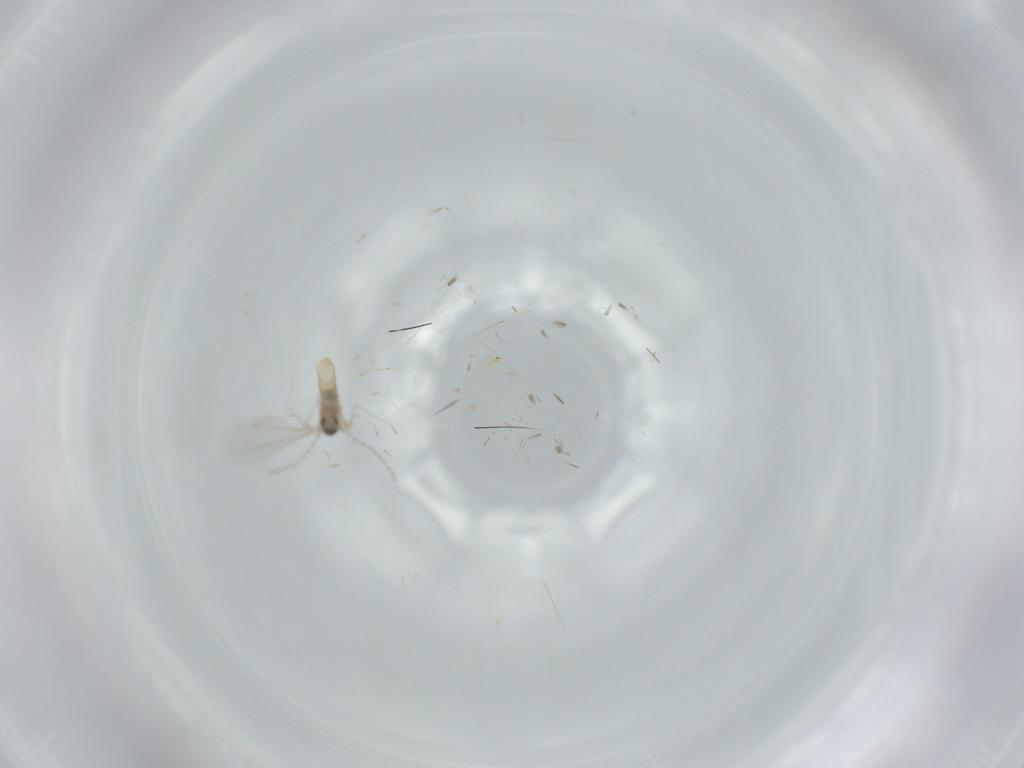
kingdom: Animalia
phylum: Arthropoda
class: Insecta
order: Diptera
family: Cecidomyiidae
